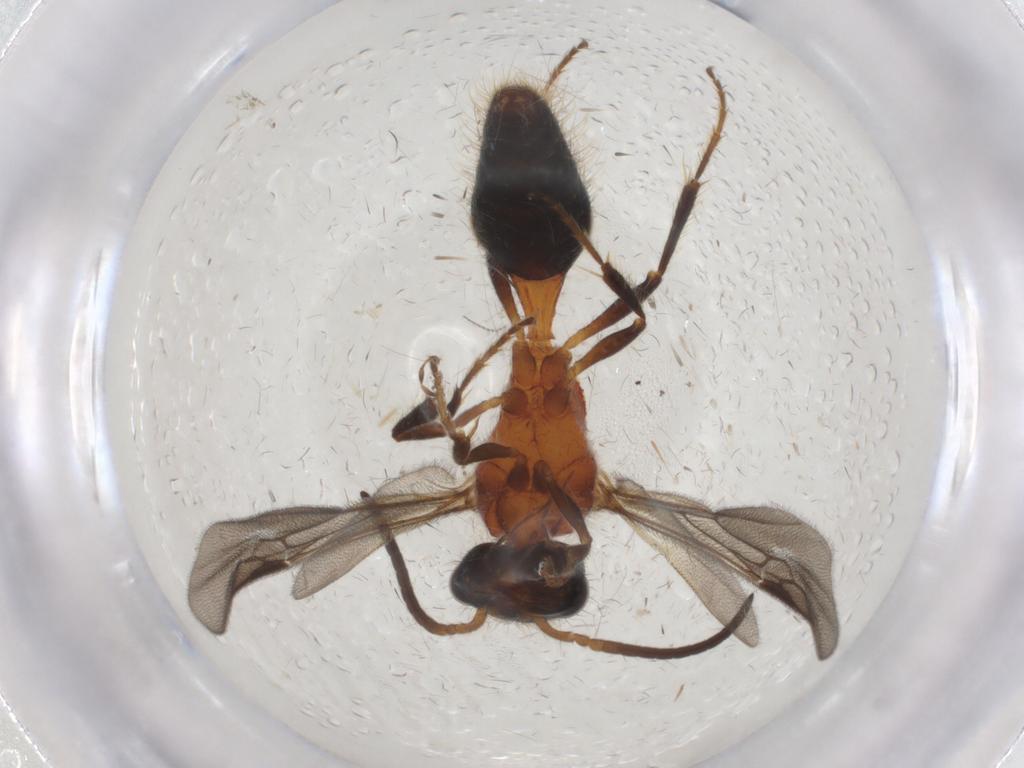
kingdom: Animalia
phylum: Arthropoda
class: Insecta
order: Hymenoptera
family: Mutillidae
